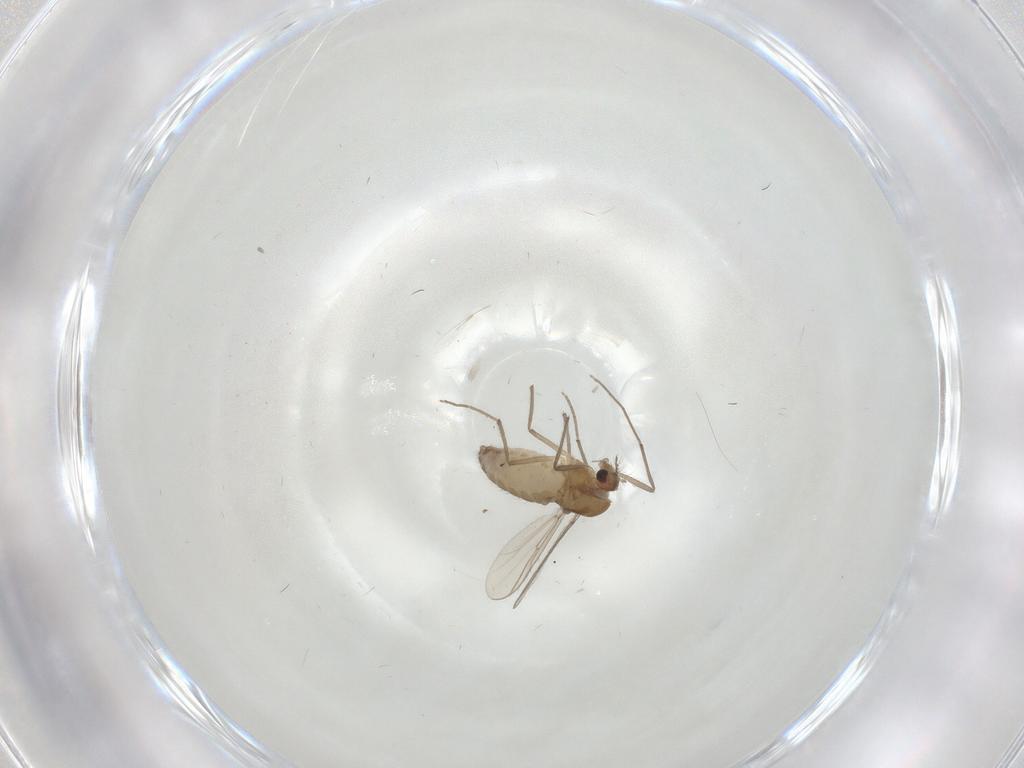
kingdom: Animalia
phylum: Arthropoda
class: Insecta
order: Diptera
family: Chironomidae
